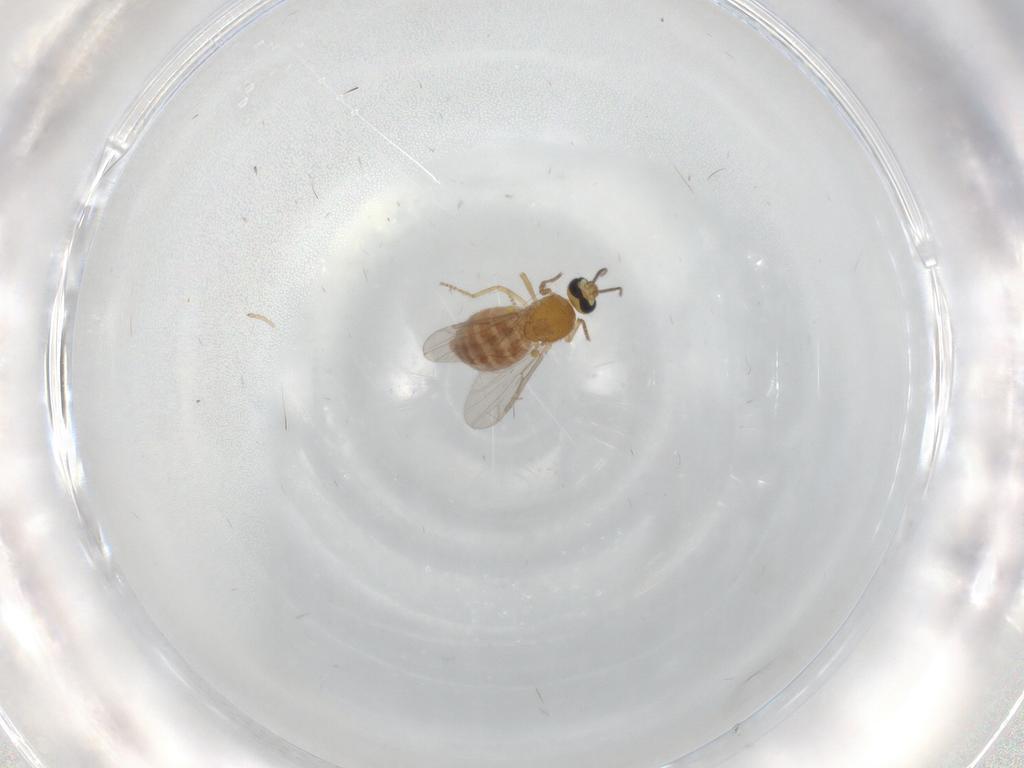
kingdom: Animalia
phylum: Arthropoda
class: Insecta
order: Diptera
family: Ceratopogonidae
